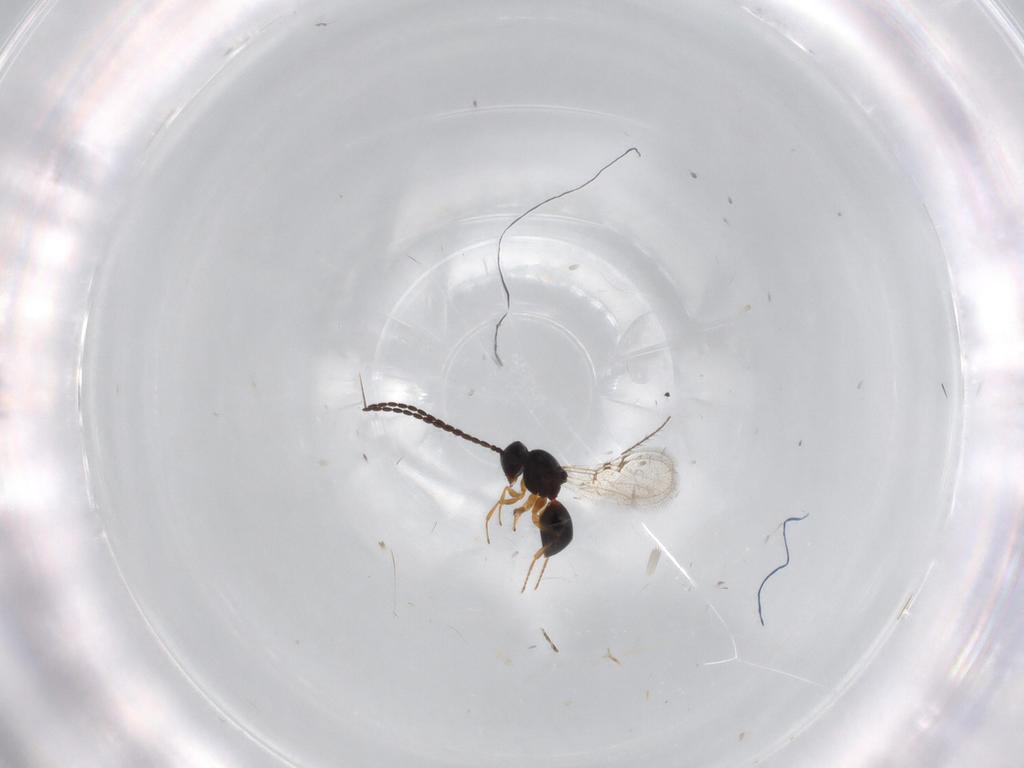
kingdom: Animalia
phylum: Arthropoda
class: Insecta
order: Hymenoptera
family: Figitidae
